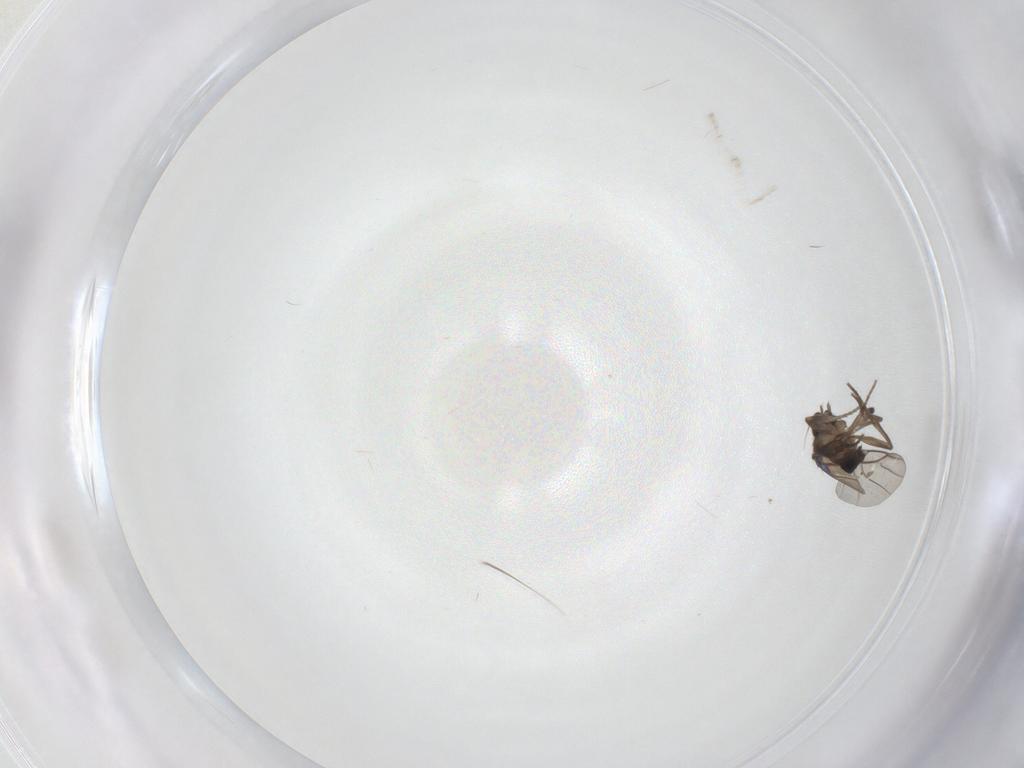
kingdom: Animalia
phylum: Arthropoda
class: Insecta
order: Diptera
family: Cecidomyiidae
